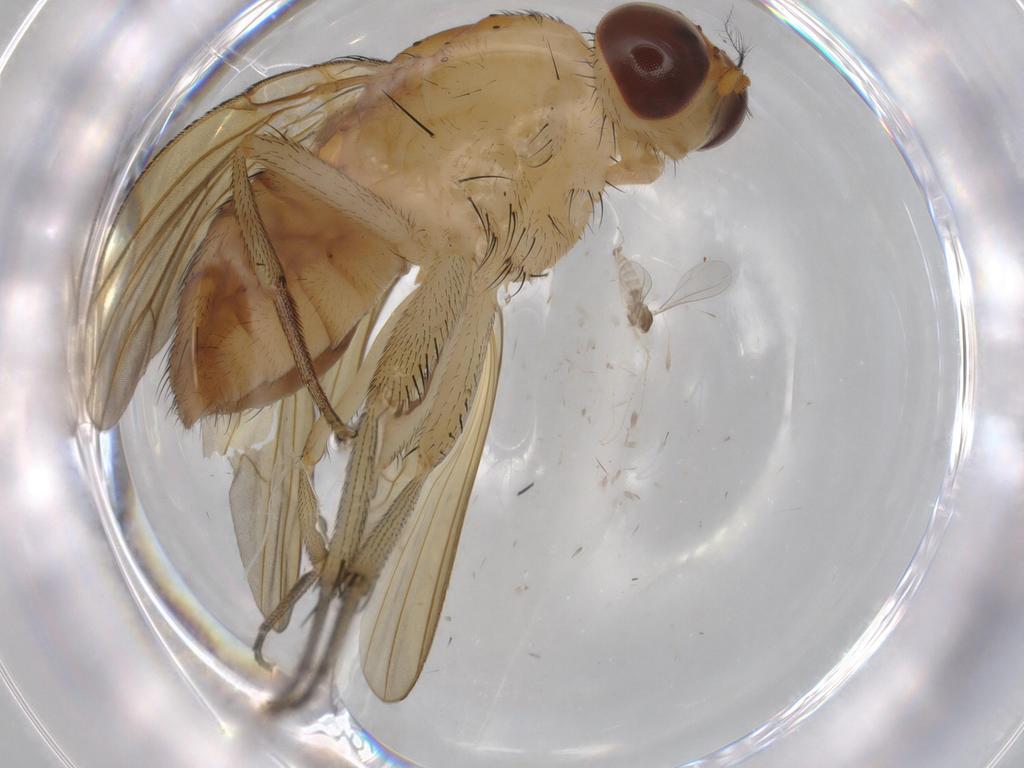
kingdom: Animalia
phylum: Arthropoda
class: Insecta
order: Diptera
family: Cecidomyiidae
